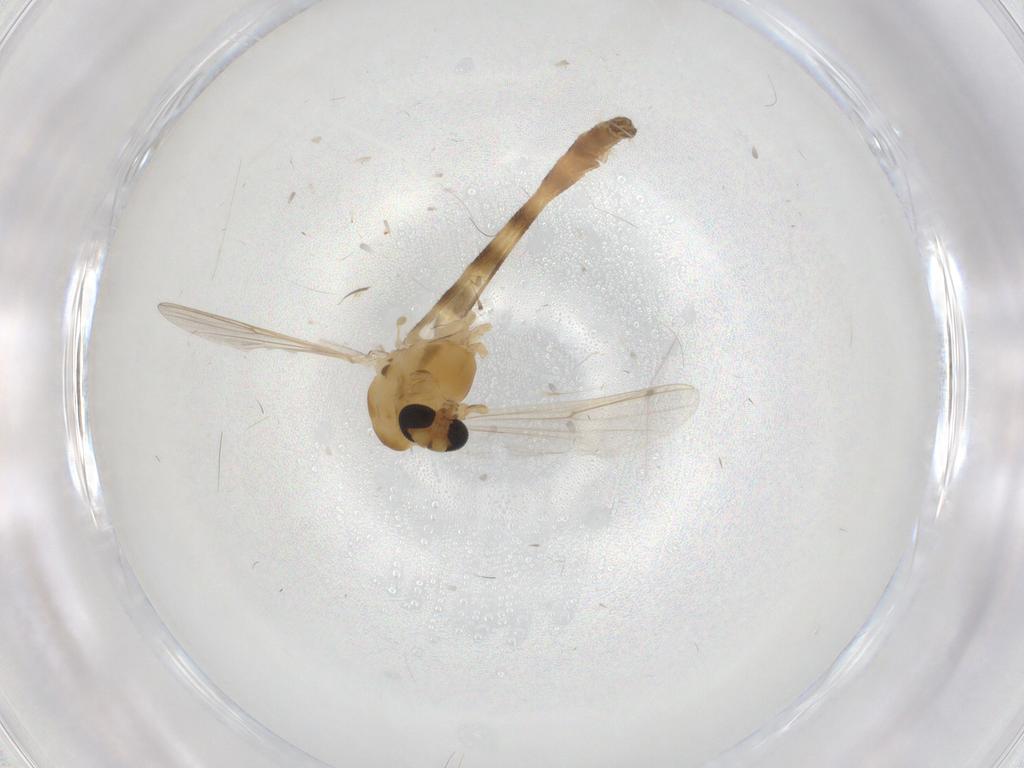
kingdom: Animalia
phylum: Arthropoda
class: Insecta
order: Diptera
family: Chironomidae
